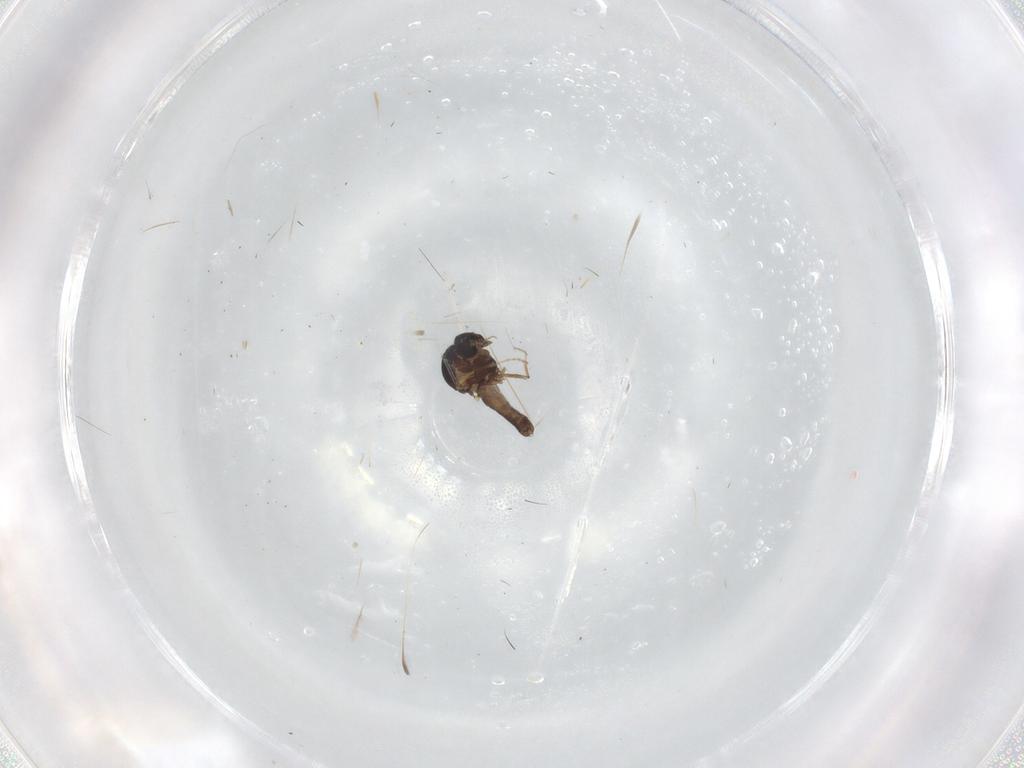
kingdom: Animalia
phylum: Arthropoda
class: Insecta
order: Diptera
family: Ceratopogonidae
